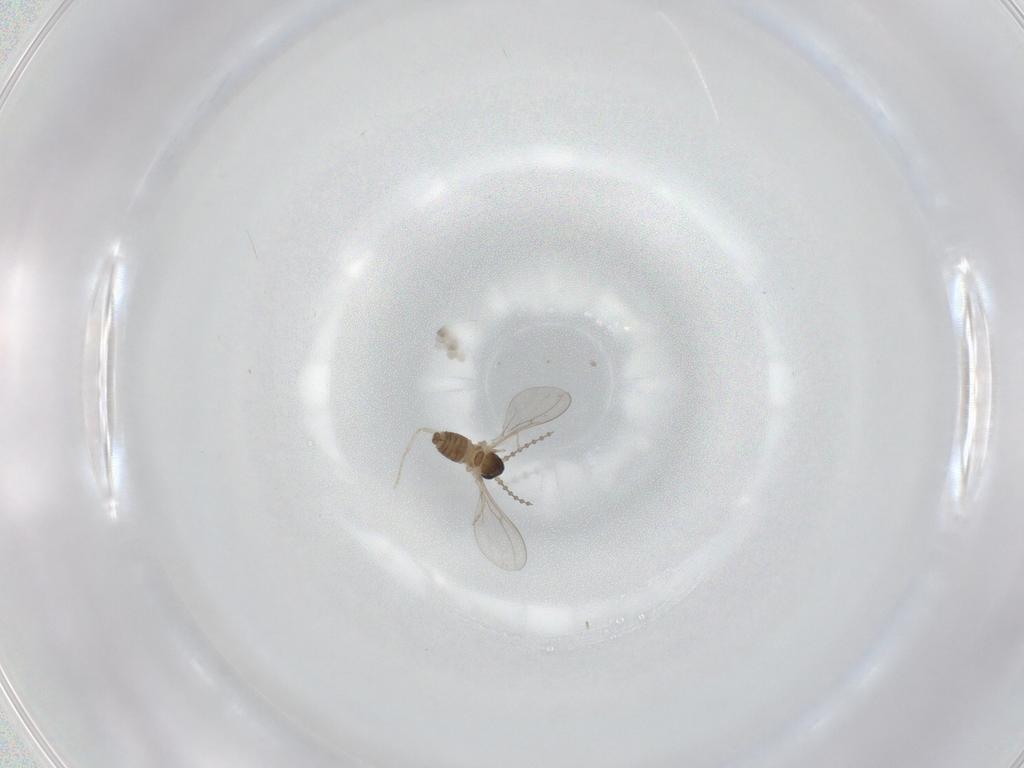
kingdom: Animalia
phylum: Arthropoda
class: Insecta
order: Diptera
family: Cecidomyiidae
